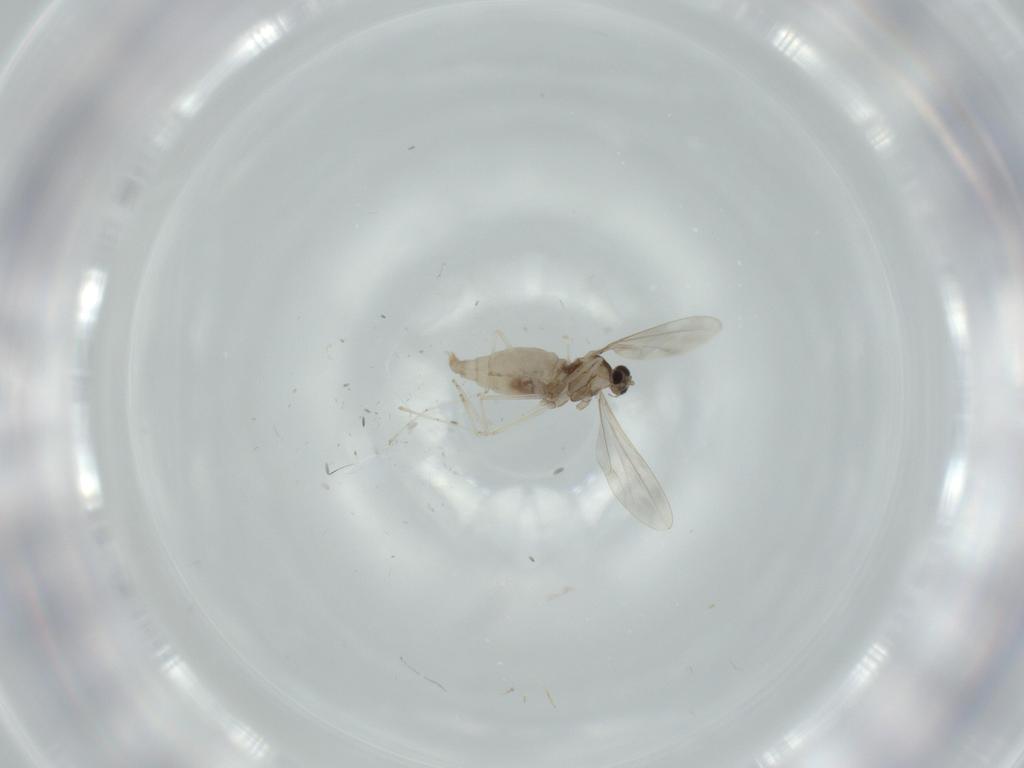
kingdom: Animalia
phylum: Arthropoda
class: Insecta
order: Diptera
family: Cecidomyiidae
